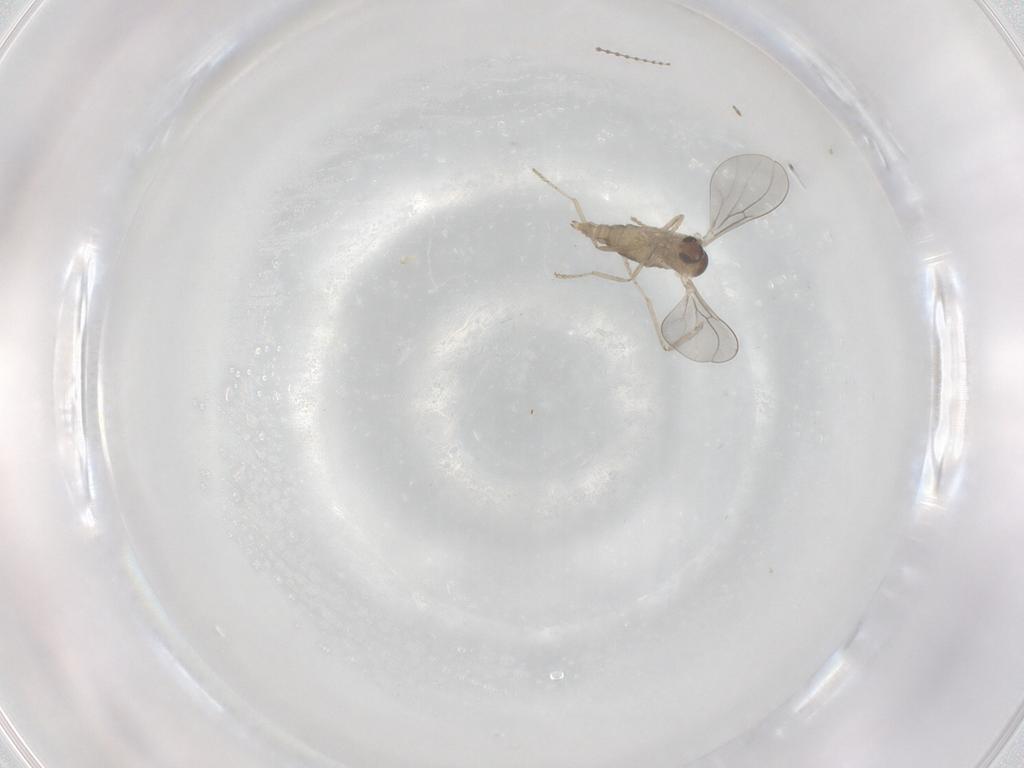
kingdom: Animalia
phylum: Arthropoda
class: Insecta
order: Diptera
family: Cecidomyiidae
